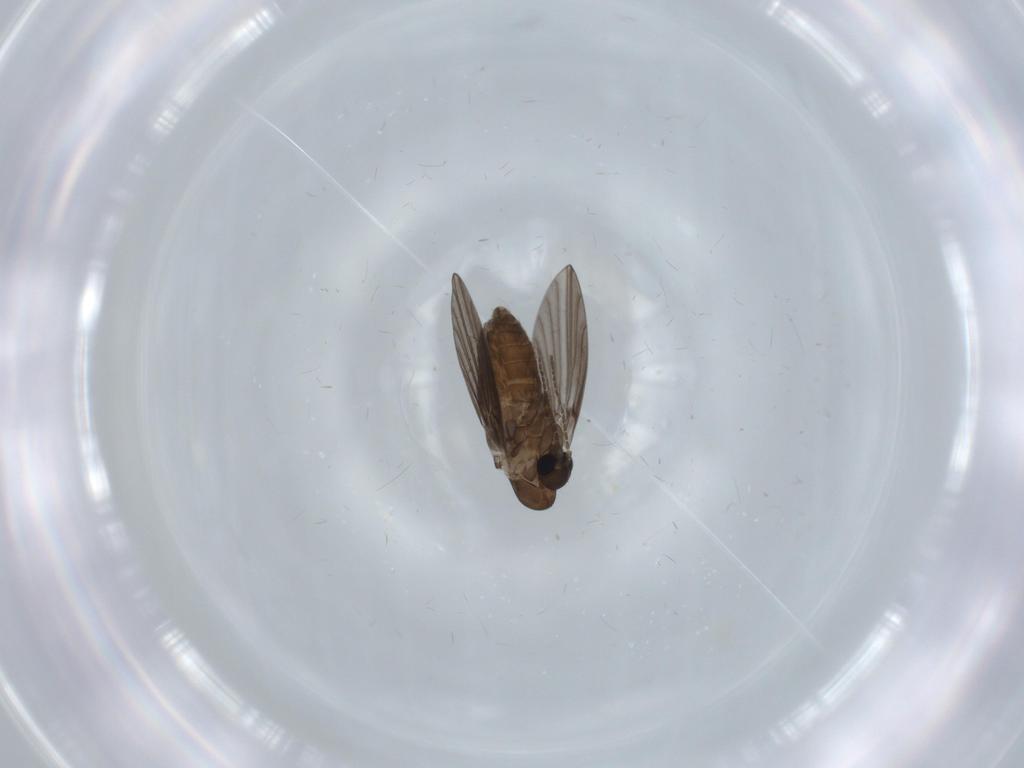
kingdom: Animalia
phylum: Arthropoda
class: Insecta
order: Diptera
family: Psychodidae
